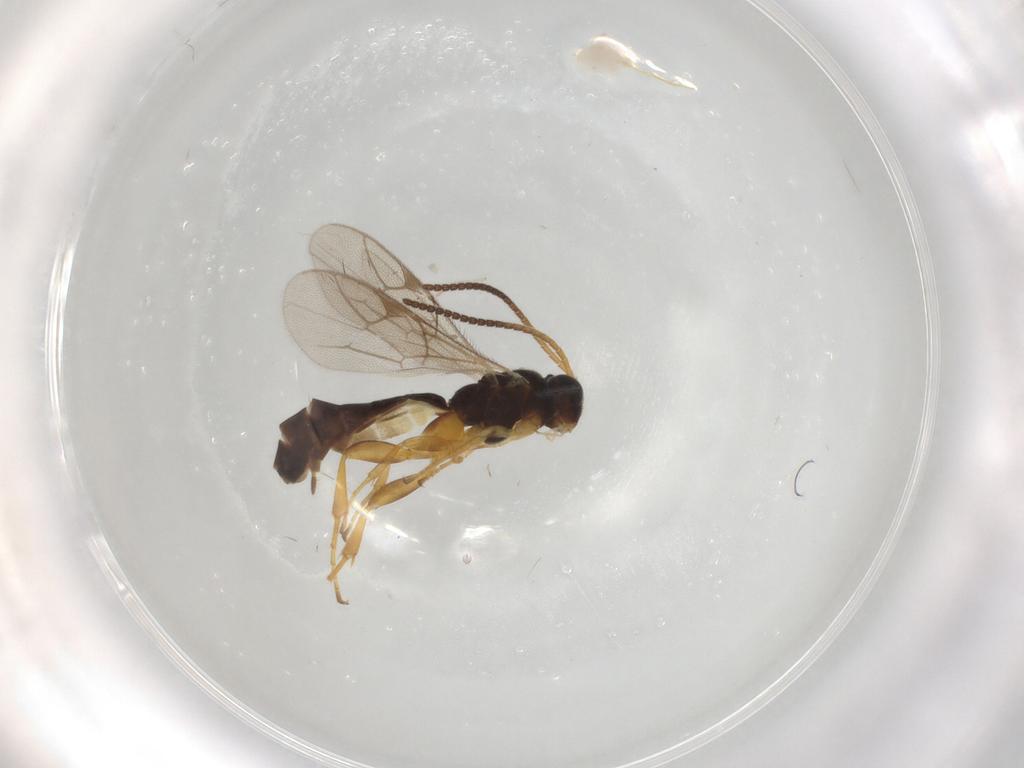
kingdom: Animalia
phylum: Arthropoda
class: Insecta
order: Hymenoptera
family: Ichneumonidae
